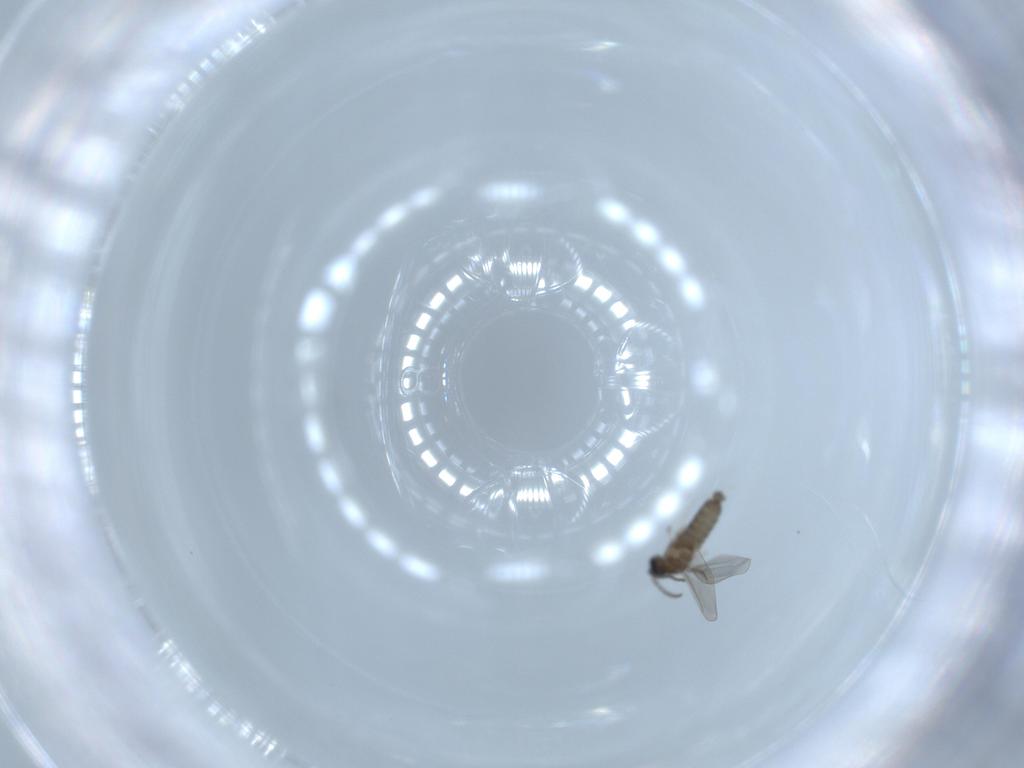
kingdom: Animalia
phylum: Arthropoda
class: Insecta
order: Diptera
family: Cecidomyiidae
